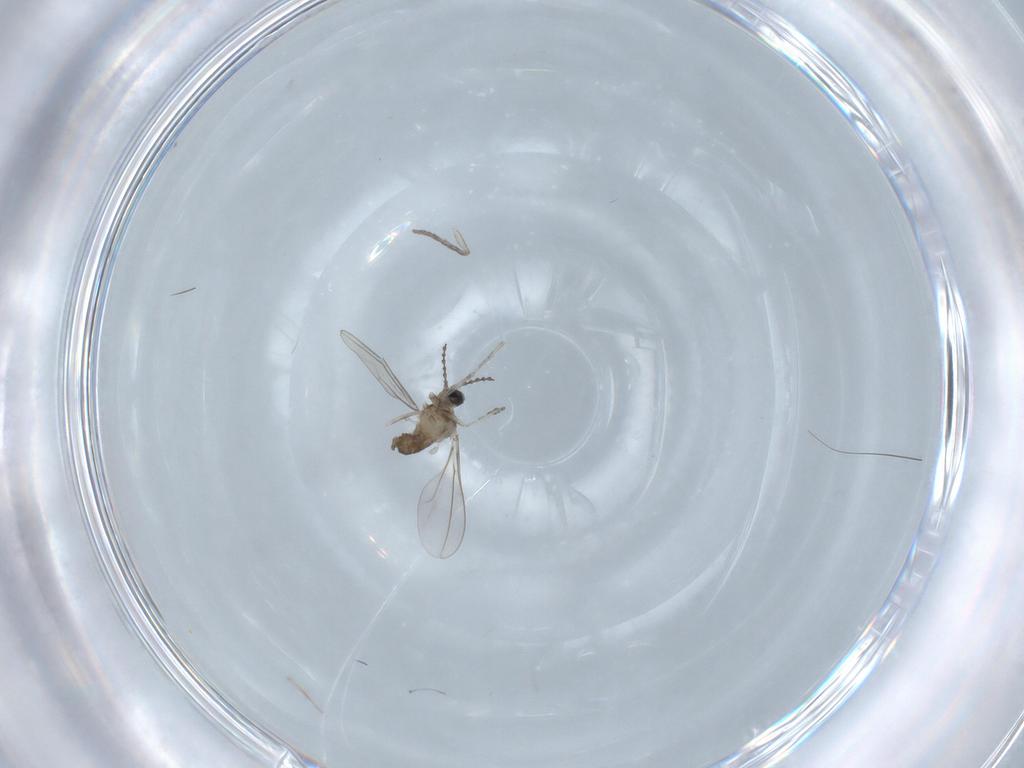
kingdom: Animalia
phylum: Arthropoda
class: Insecta
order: Diptera
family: Cecidomyiidae
